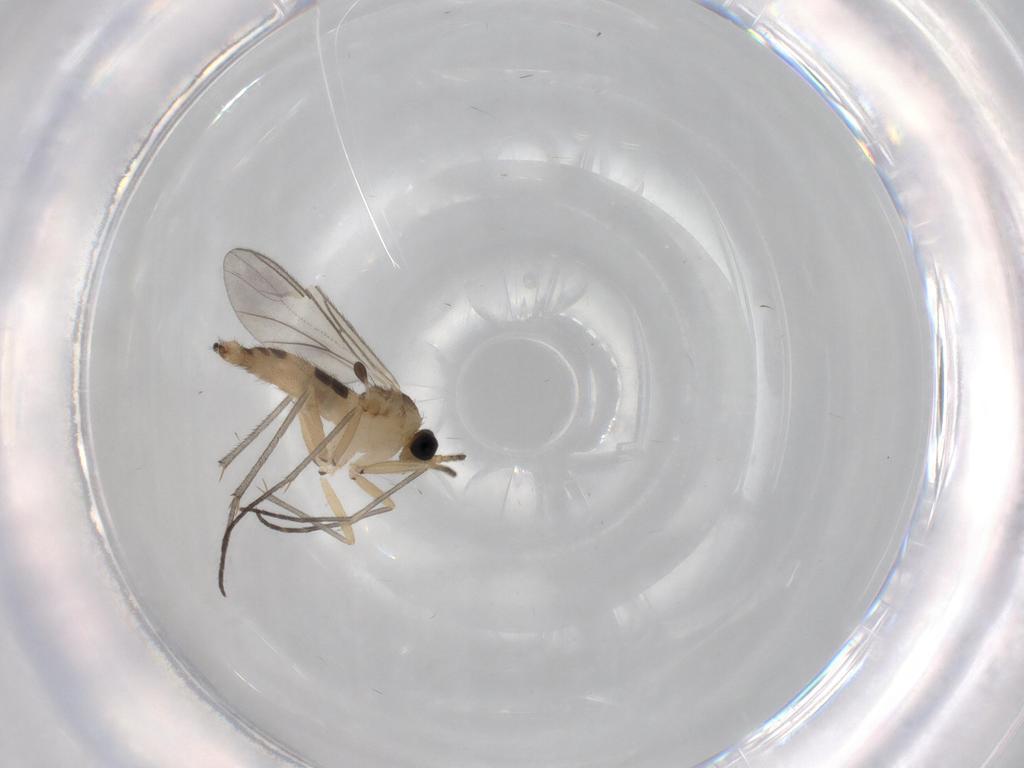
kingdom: Animalia
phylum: Arthropoda
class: Insecta
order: Diptera
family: Sciaridae
